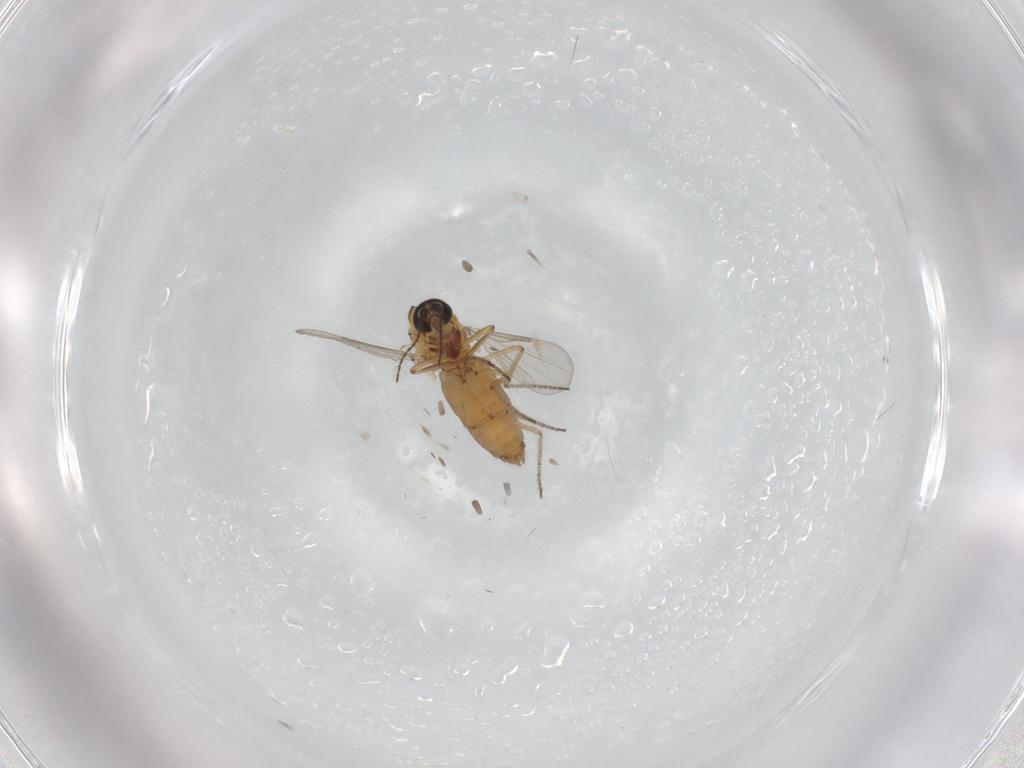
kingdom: Animalia
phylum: Arthropoda
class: Insecta
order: Diptera
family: Ceratopogonidae
